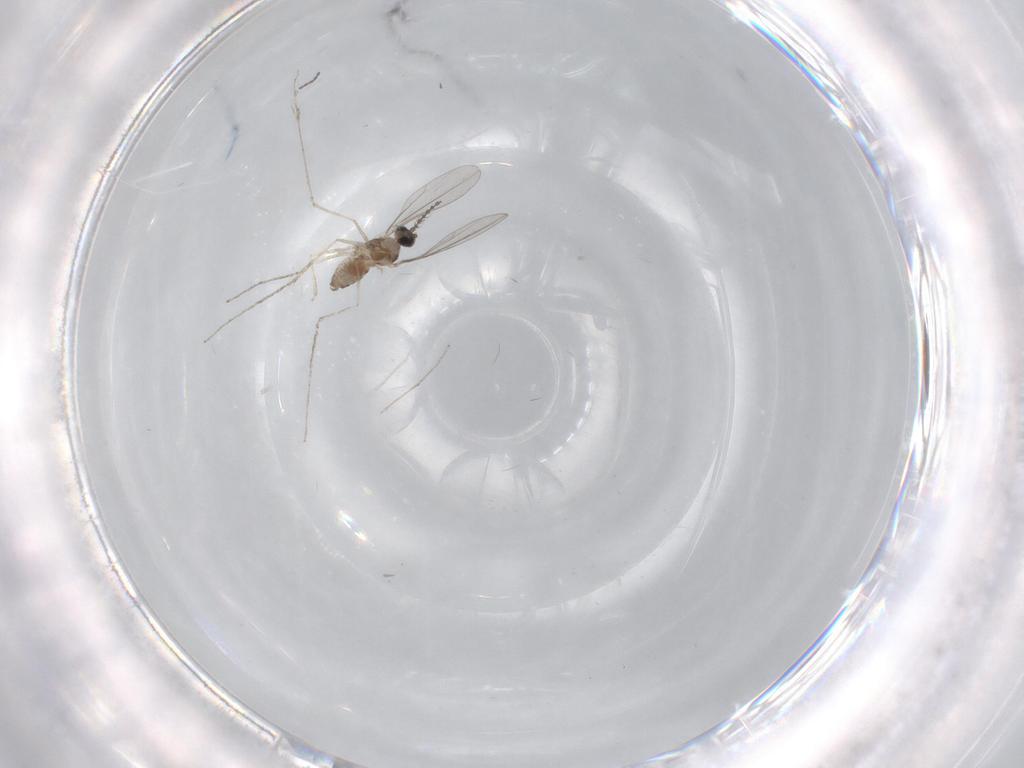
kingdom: Animalia
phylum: Arthropoda
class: Insecta
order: Diptera
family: Cecidomyiidae
